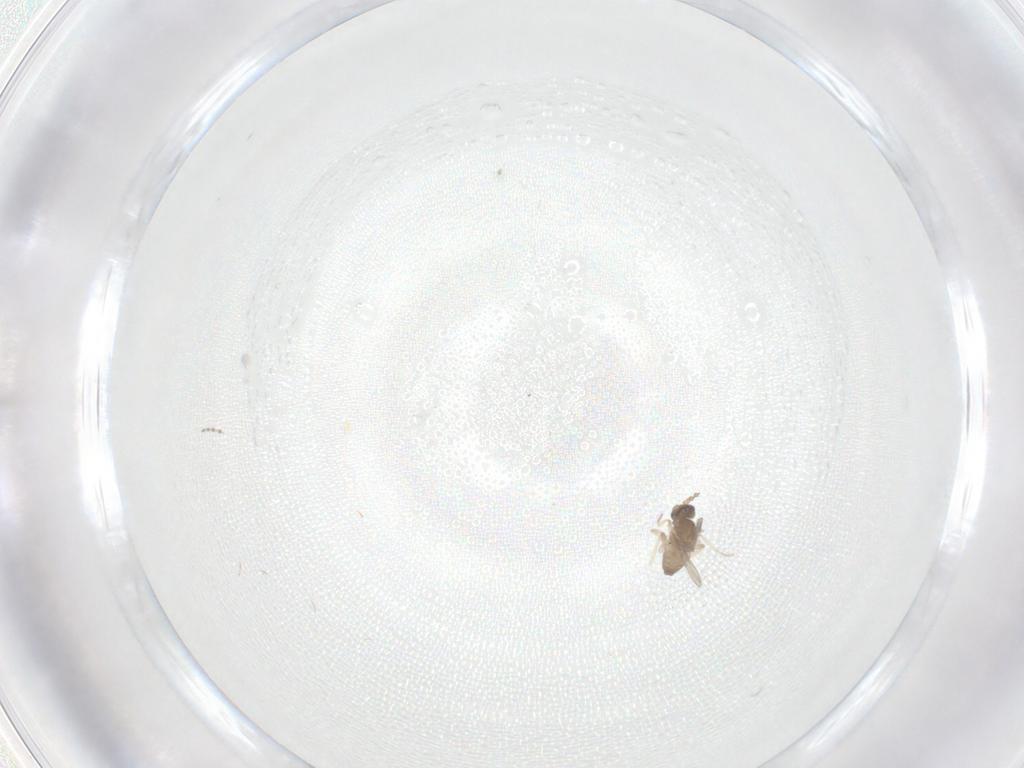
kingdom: Animalia
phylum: Arthropoda
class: Insecta
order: Diptera
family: Cecidomyiidae
